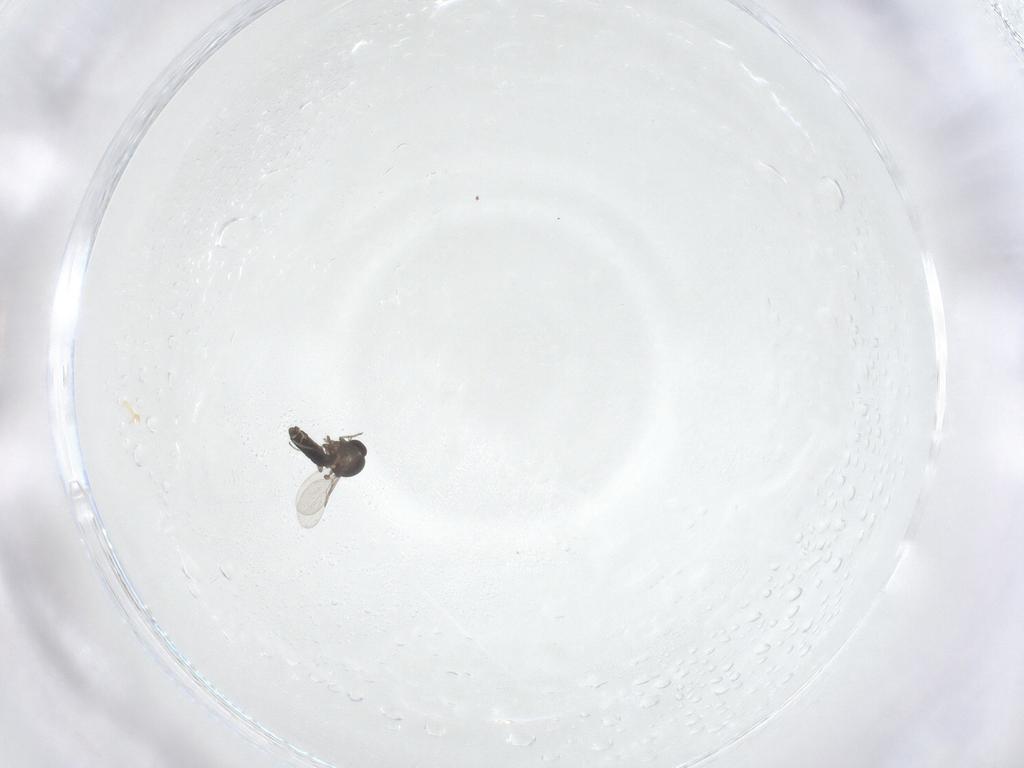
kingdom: Animalia
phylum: Arthropoda
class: Insecta
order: Diptera
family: Ceratopogonidae
